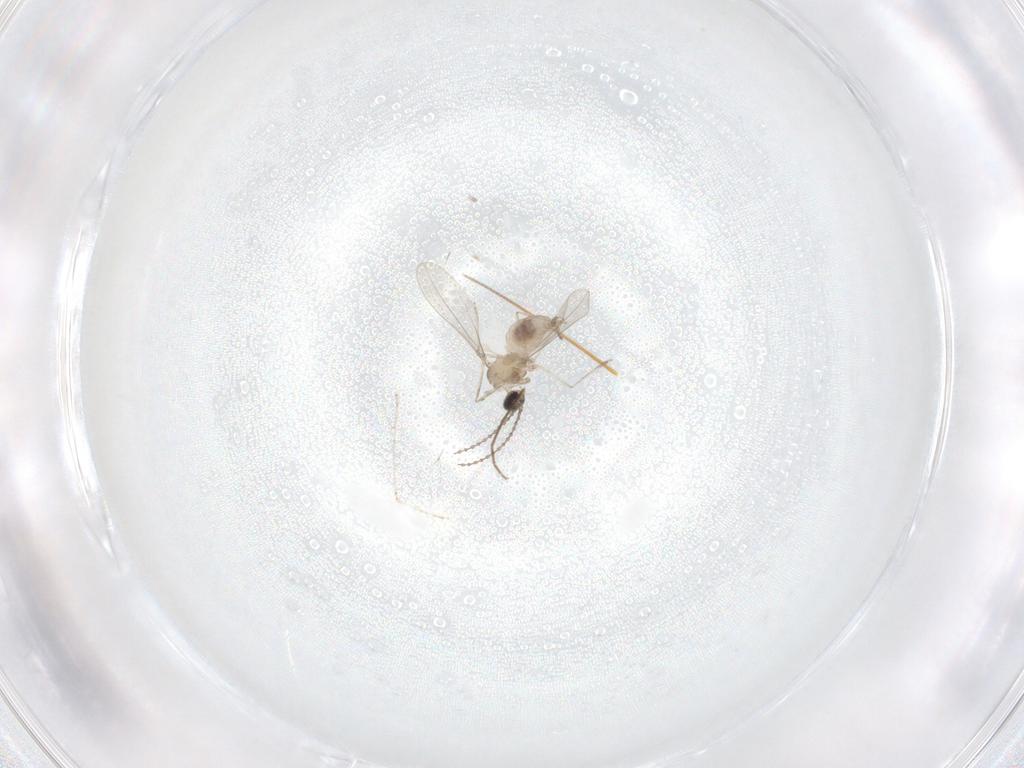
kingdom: Animalia
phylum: Arthropoda
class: Insecta
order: Diptera
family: Cecidomyiidae
